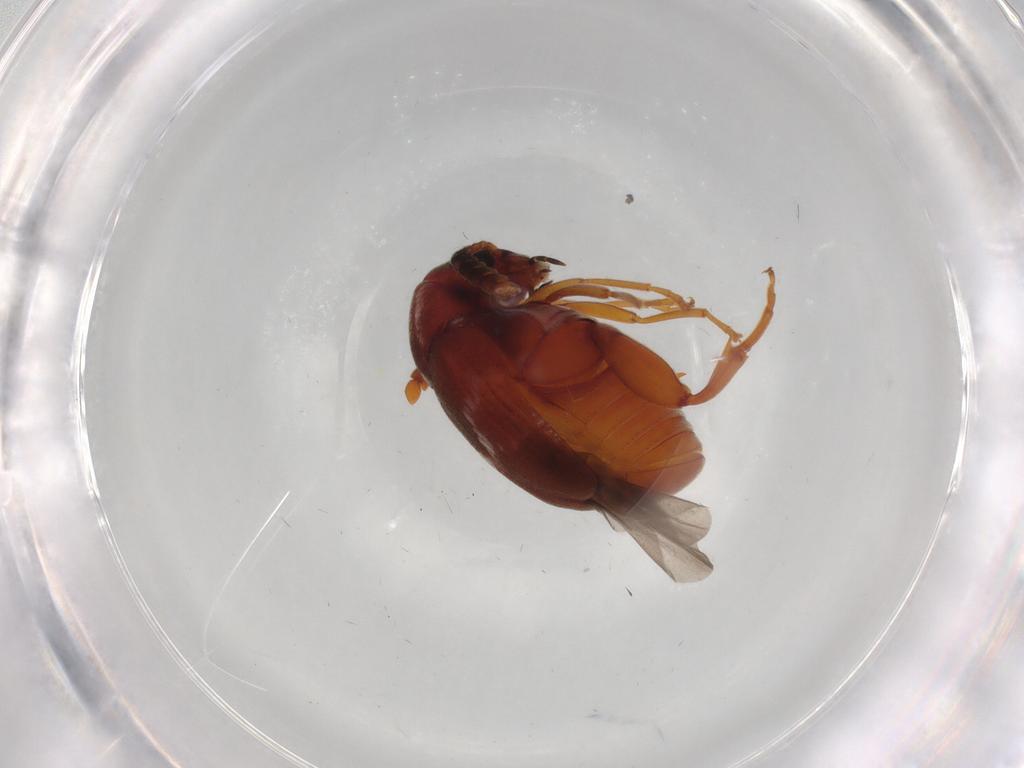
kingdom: Animalia
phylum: Arthropoda
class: Insecta
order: Coleoptera
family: Chrysomelidae
